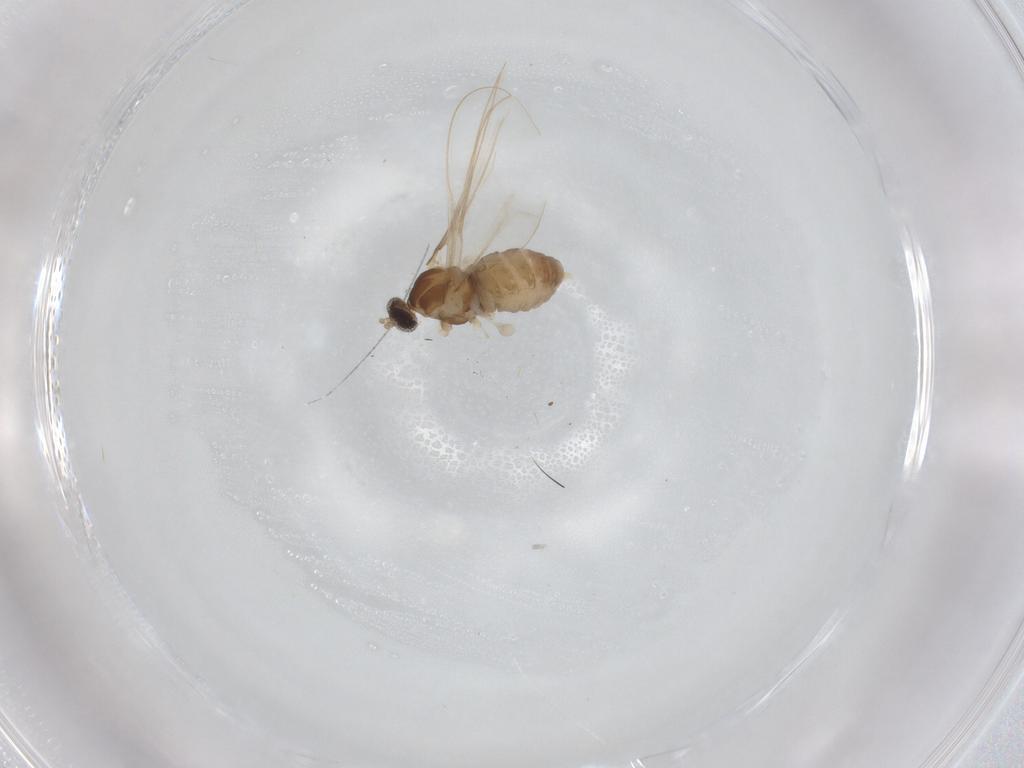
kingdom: Animalia
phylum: Arthropoda
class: Insecta
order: Diptera
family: Cecidomyiidae
